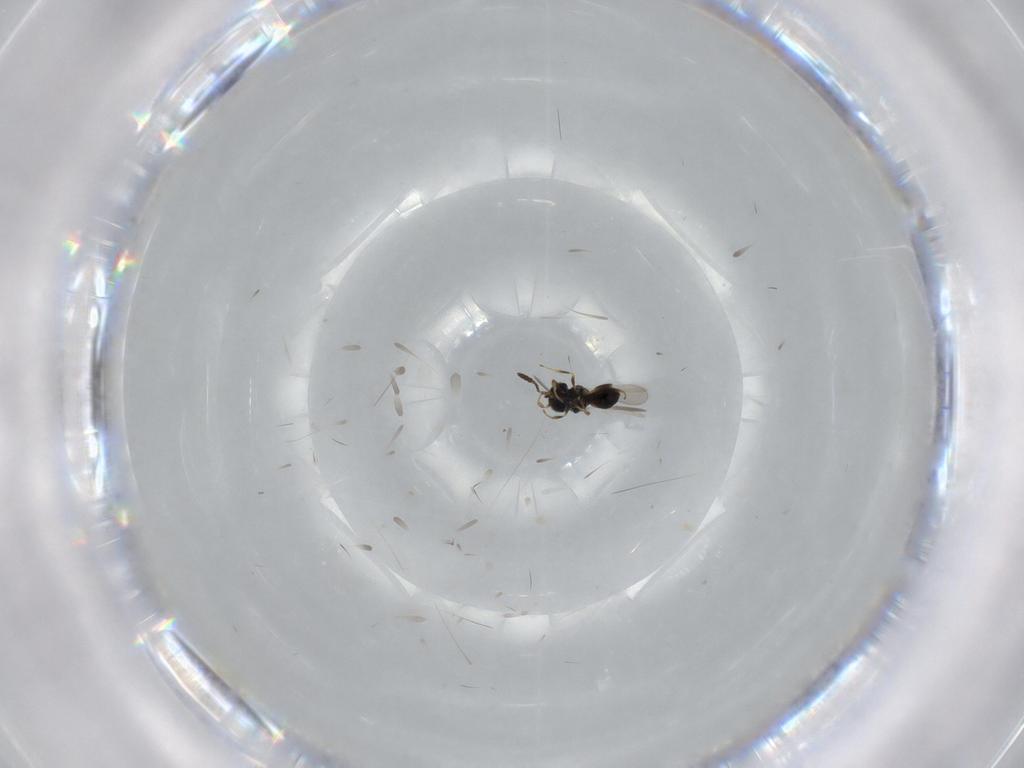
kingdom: Animalia
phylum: Arthropoda
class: Insecta
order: Hymenoptera
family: Scelionidae
